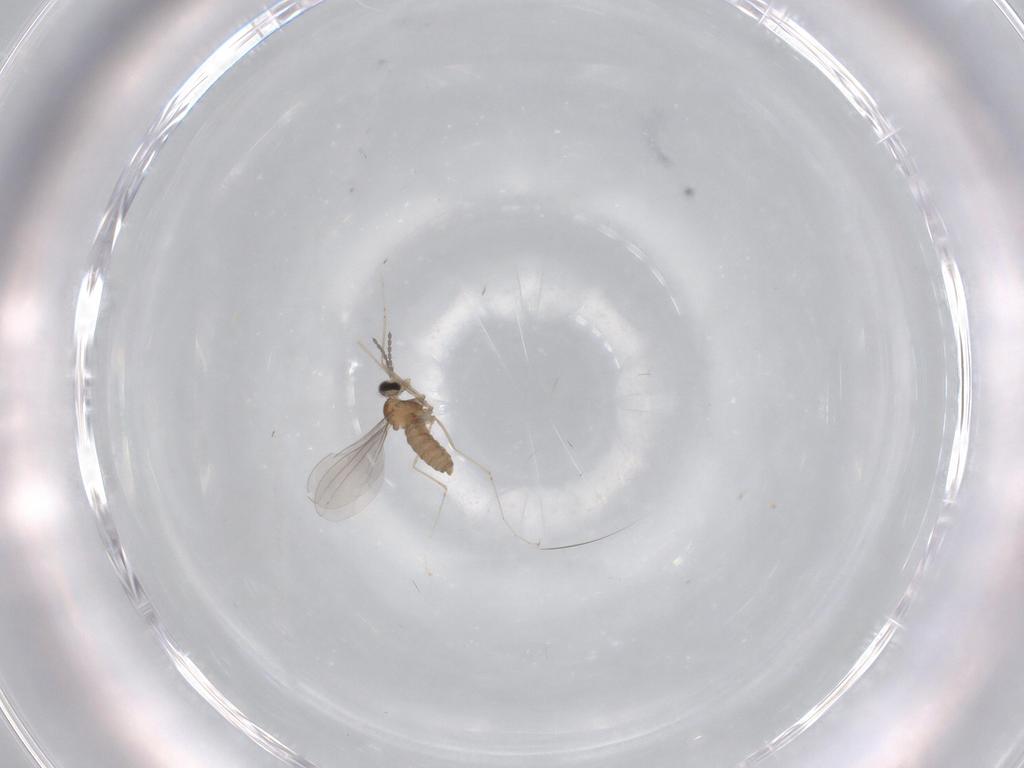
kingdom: Animalia
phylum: Arthropoda
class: Insecta
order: Diptera
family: Cecidomyiidae
